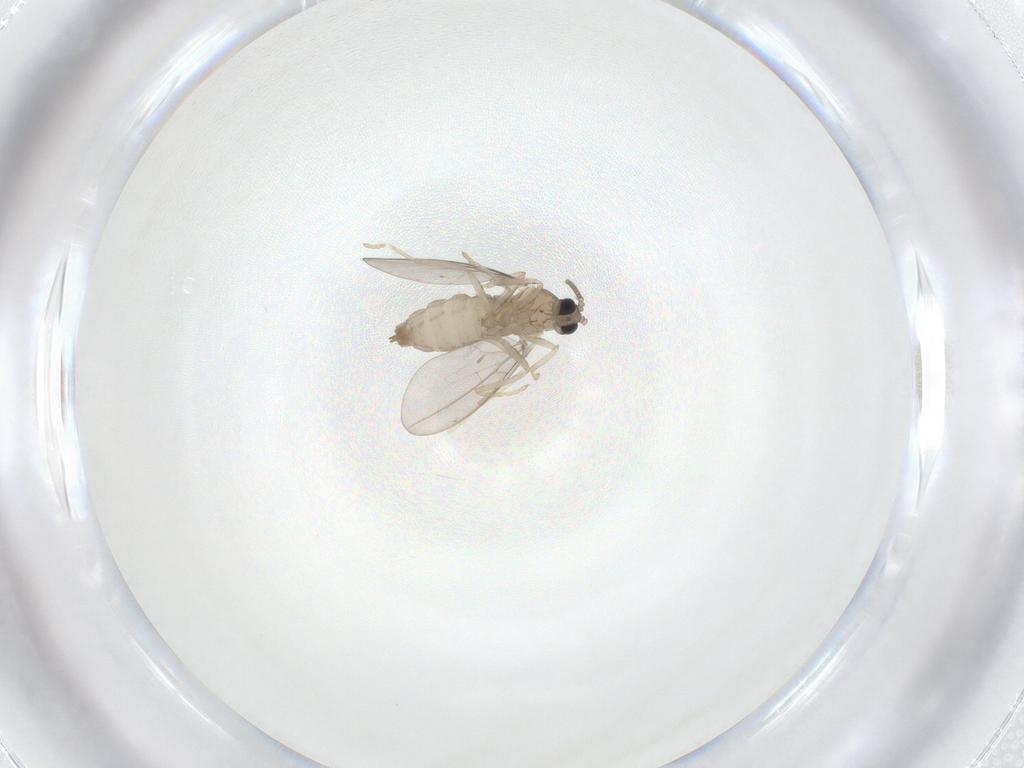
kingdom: Animalia
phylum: Arthropoda
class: Insecta
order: Diptera
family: Cecidomyiidae
